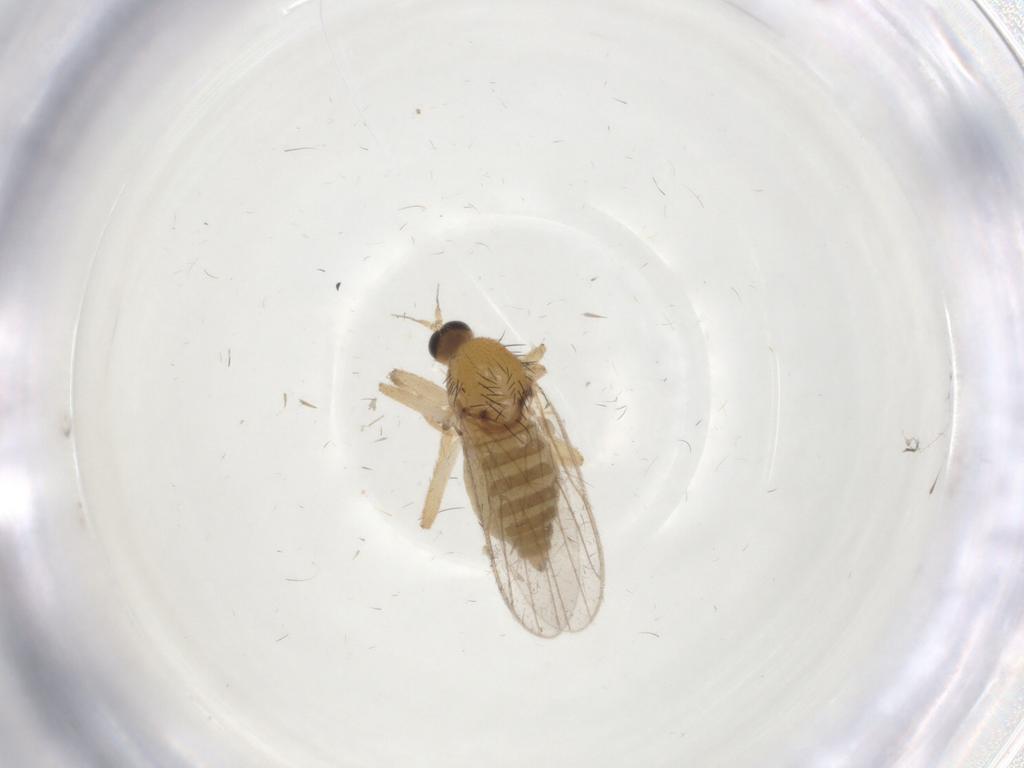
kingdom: Animalia
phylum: Arthropoda
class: Insecta
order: Diptera
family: Hybotidae
